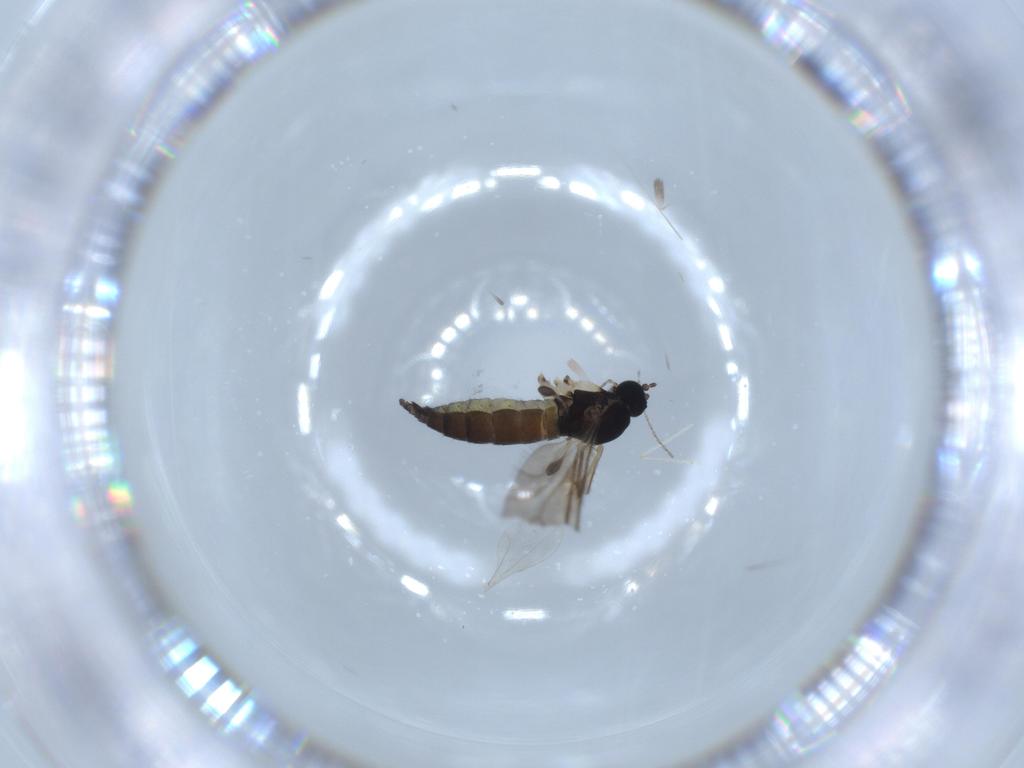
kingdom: Animalia
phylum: Arthropoda
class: Insecta
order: Diptera
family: Sciaridae
